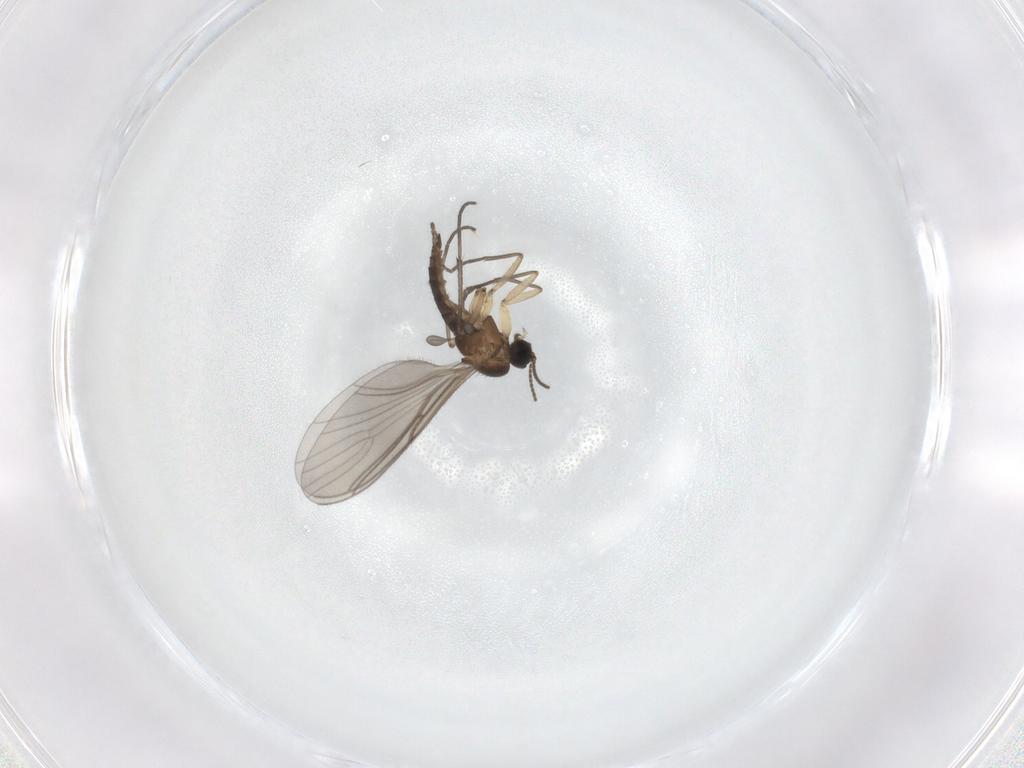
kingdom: Animalia
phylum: Arthropoda
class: Insecta
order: Diptera
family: Sciaridae
